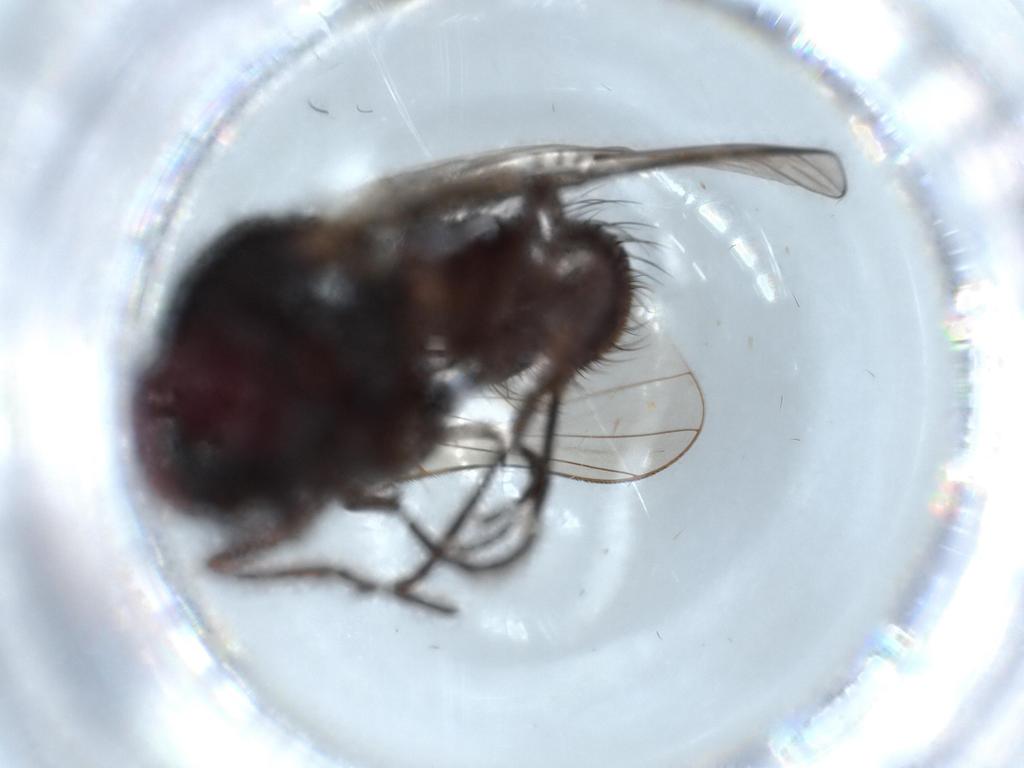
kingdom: Animalia
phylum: Arthropoda
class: Insecta
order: Diptera
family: Muscidae
